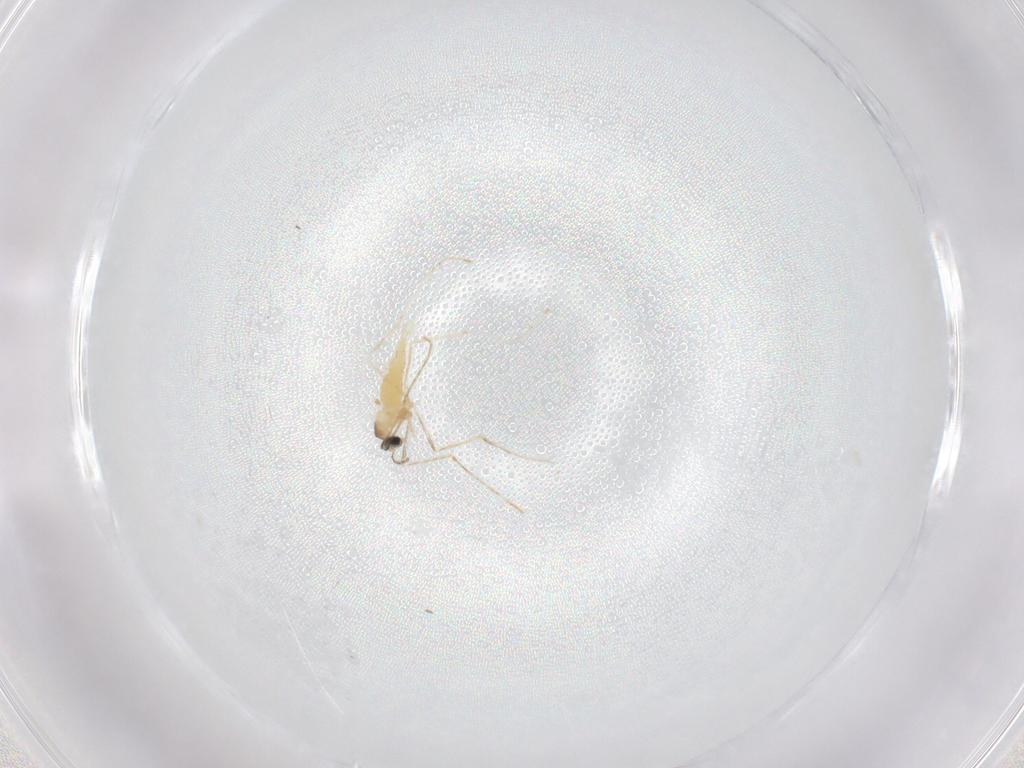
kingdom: Animalia
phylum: Arthropoda
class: Insecta
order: Diptera
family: Cecidomyiidae
